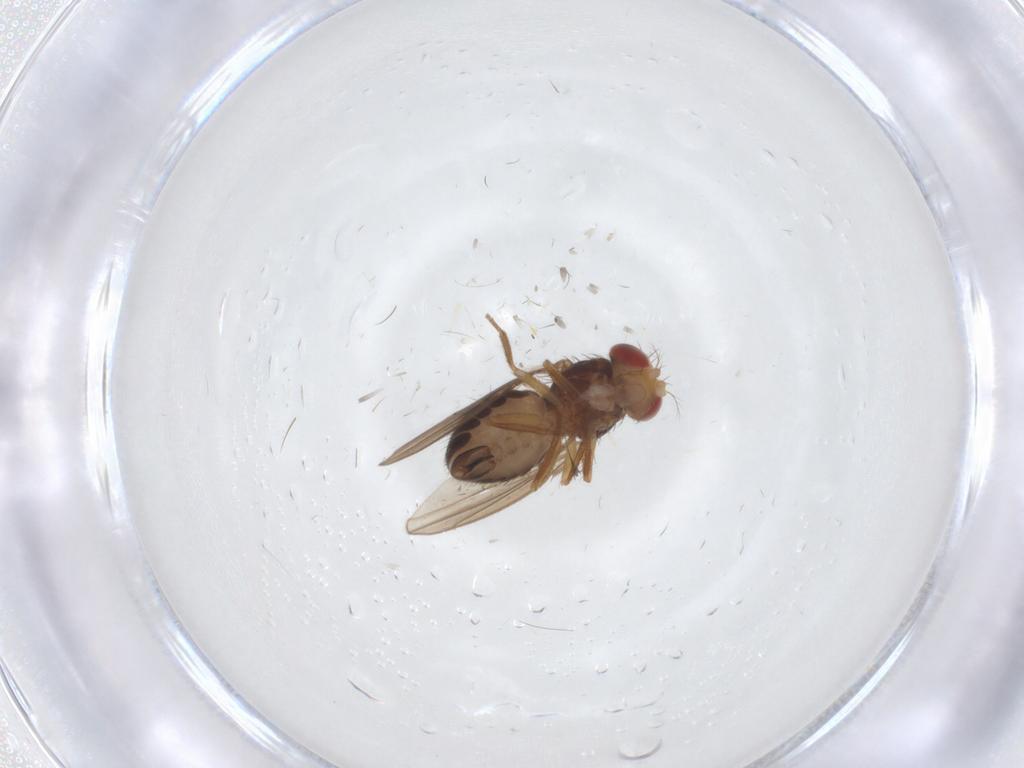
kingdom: Animalia
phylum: Arthropoda
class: Insecta
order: Diptera
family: Drosophilidae
